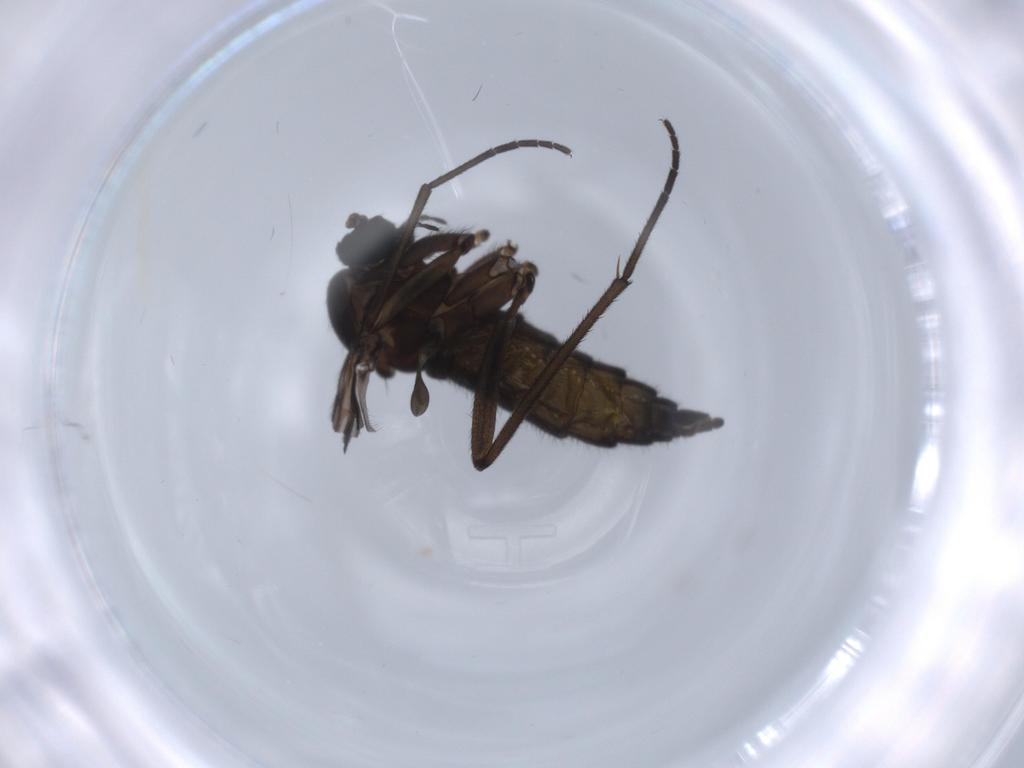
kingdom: Animalia
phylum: Arthropoda
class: Insecta
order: Diptera
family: Sciaridae
